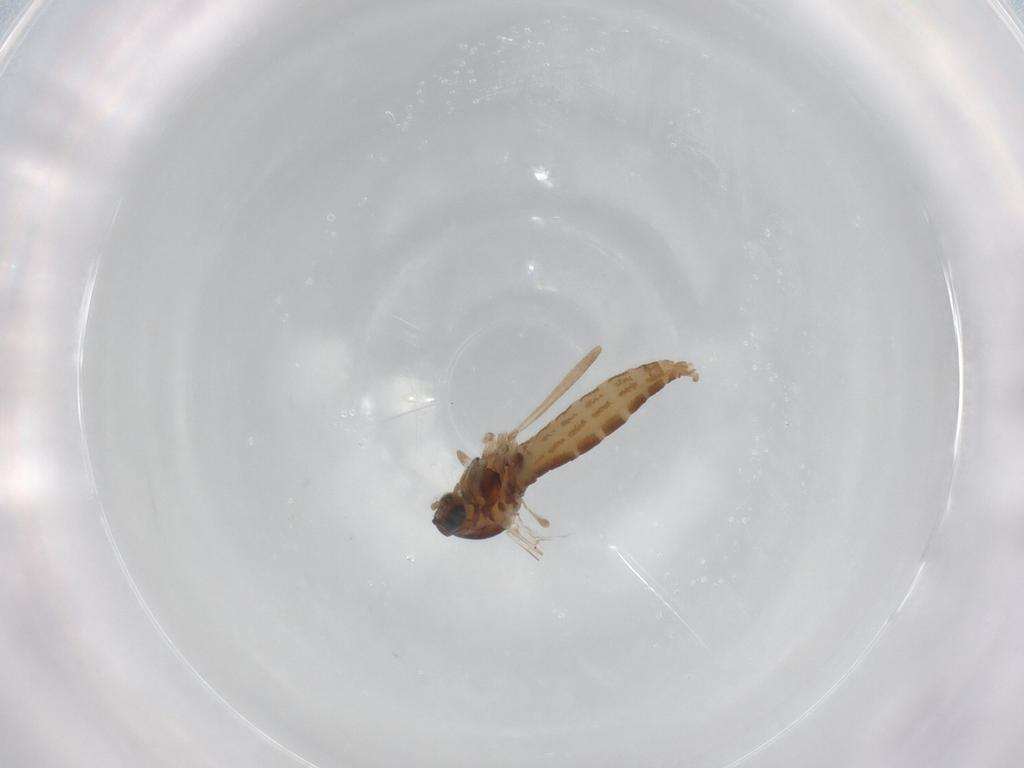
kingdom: Animalia
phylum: Arthropoda
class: Insecta
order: Diptera
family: Cecidomyiidae
